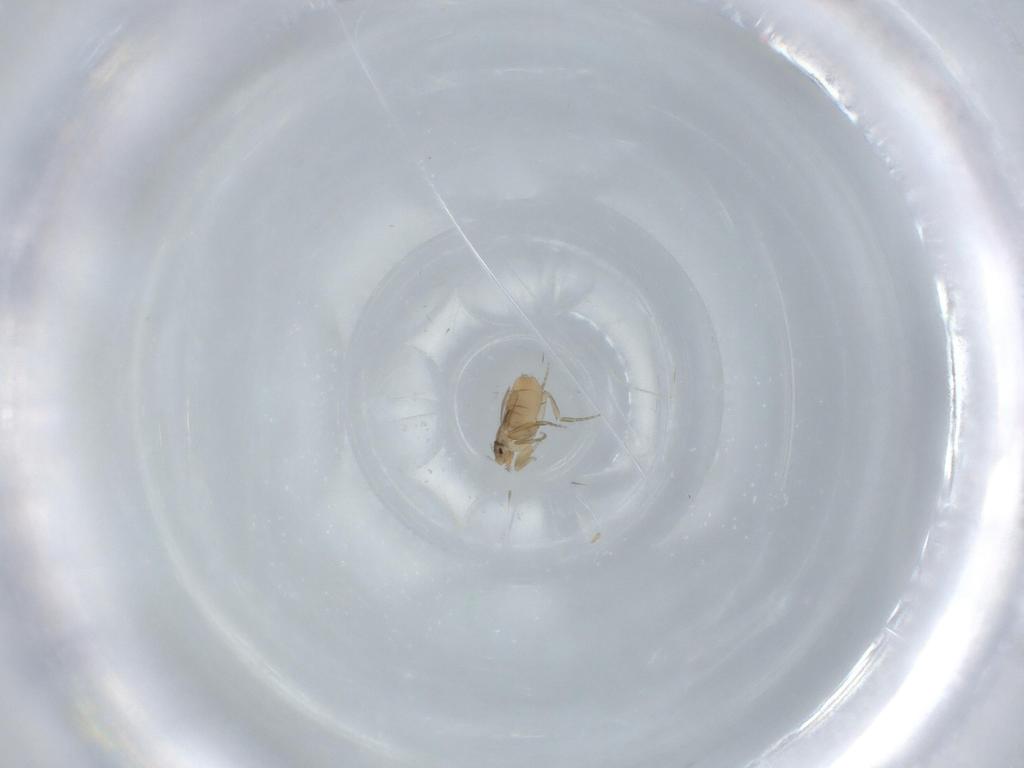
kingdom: Animalia
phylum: Arthropoda
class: Insecta
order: Diptera
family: Phoridae
